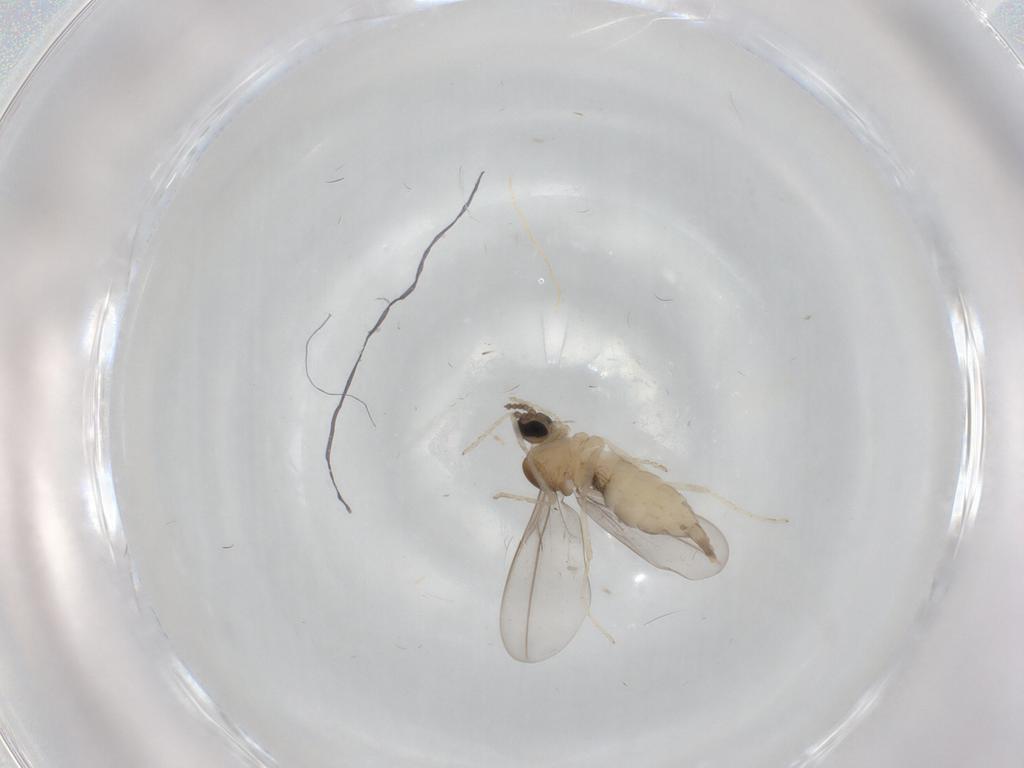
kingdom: Animalia
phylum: Arthropoda
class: Insecta
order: Diptera
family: Cecidomyiidae
